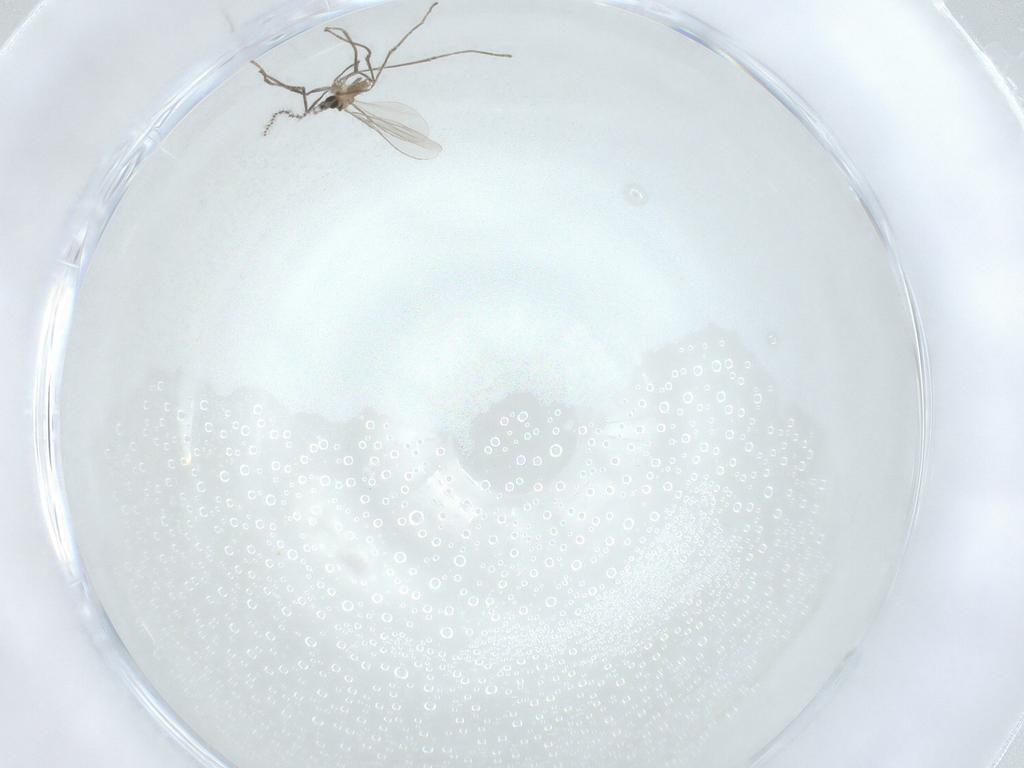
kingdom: Animalia
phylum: Arthropoda
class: Insecta
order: Diptera
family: Cecidomyiidae
